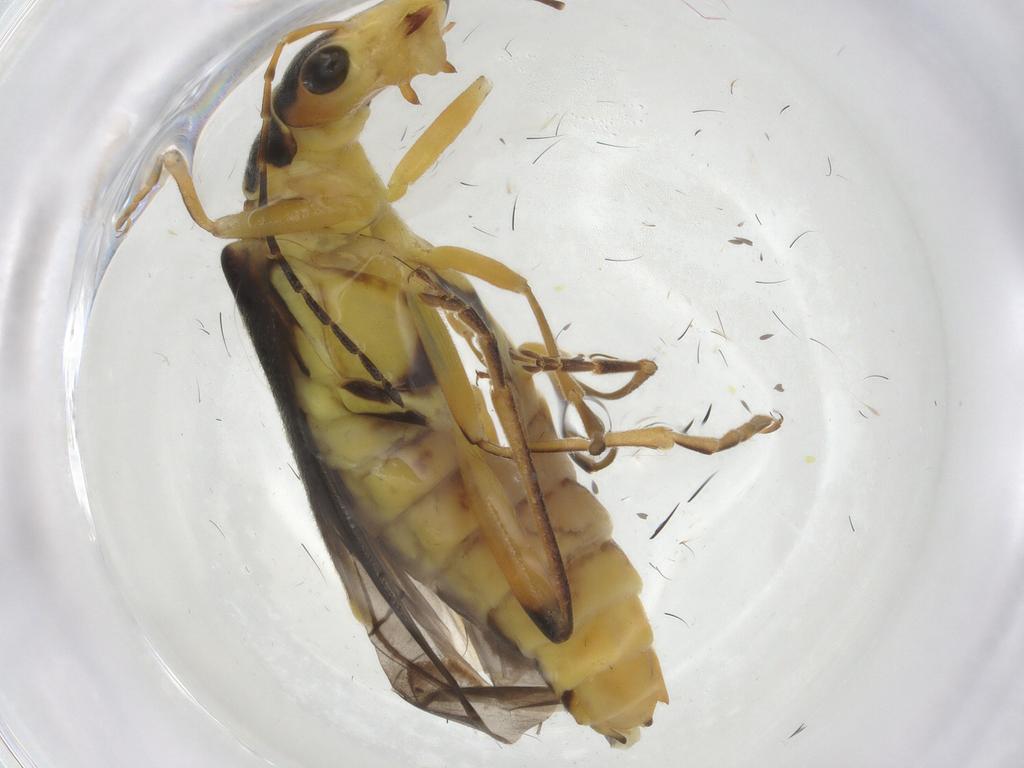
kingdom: Animalia
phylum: Arthropoda
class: Insecta
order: Coleoptera
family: Cantharidae
